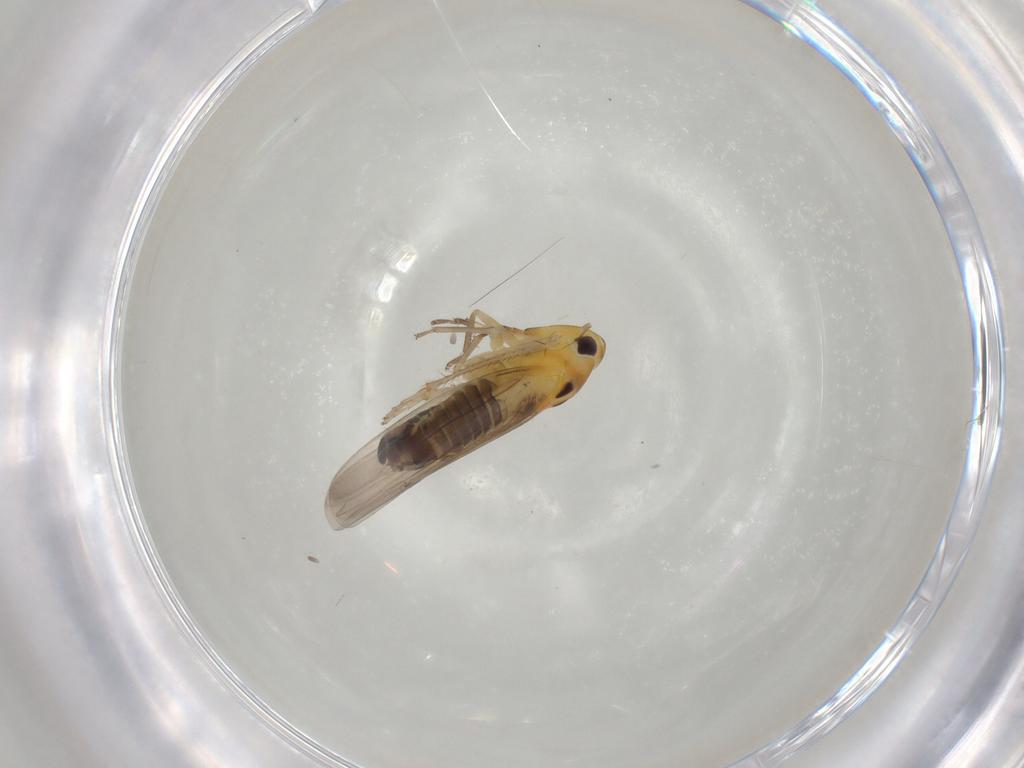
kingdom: Animalia
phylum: Arthropoda
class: Insecta
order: Hemiptera
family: Cicadellidae
